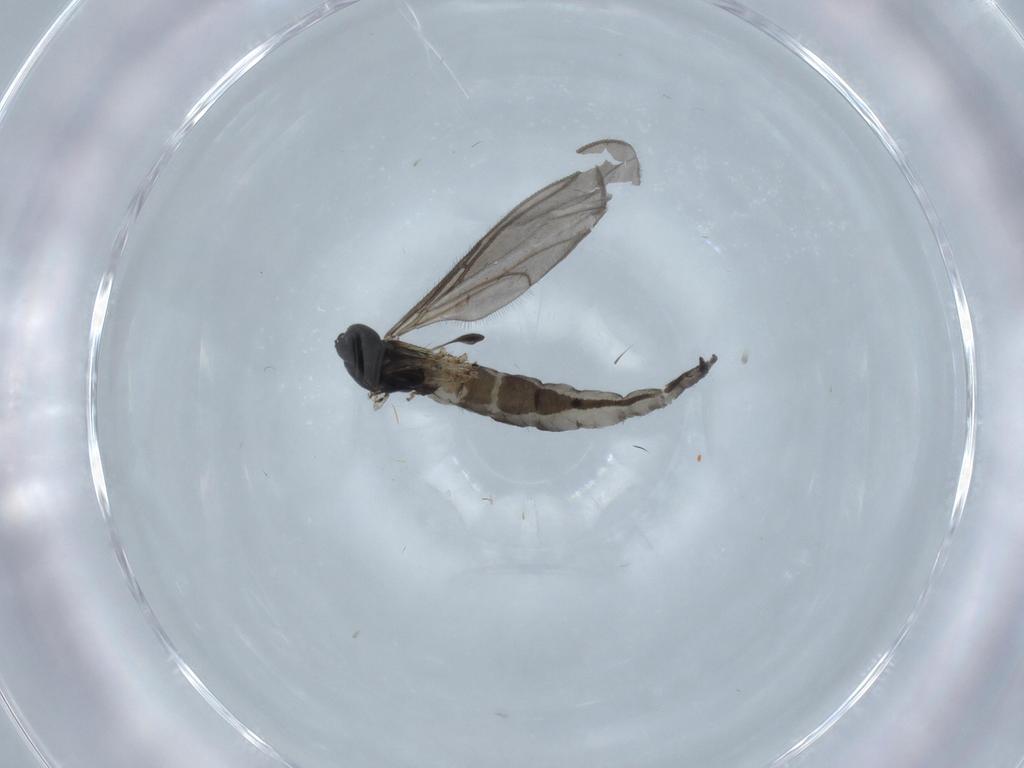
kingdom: Animalia
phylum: Arthropoda
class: Insecta
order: Diptera
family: Sciaridae
